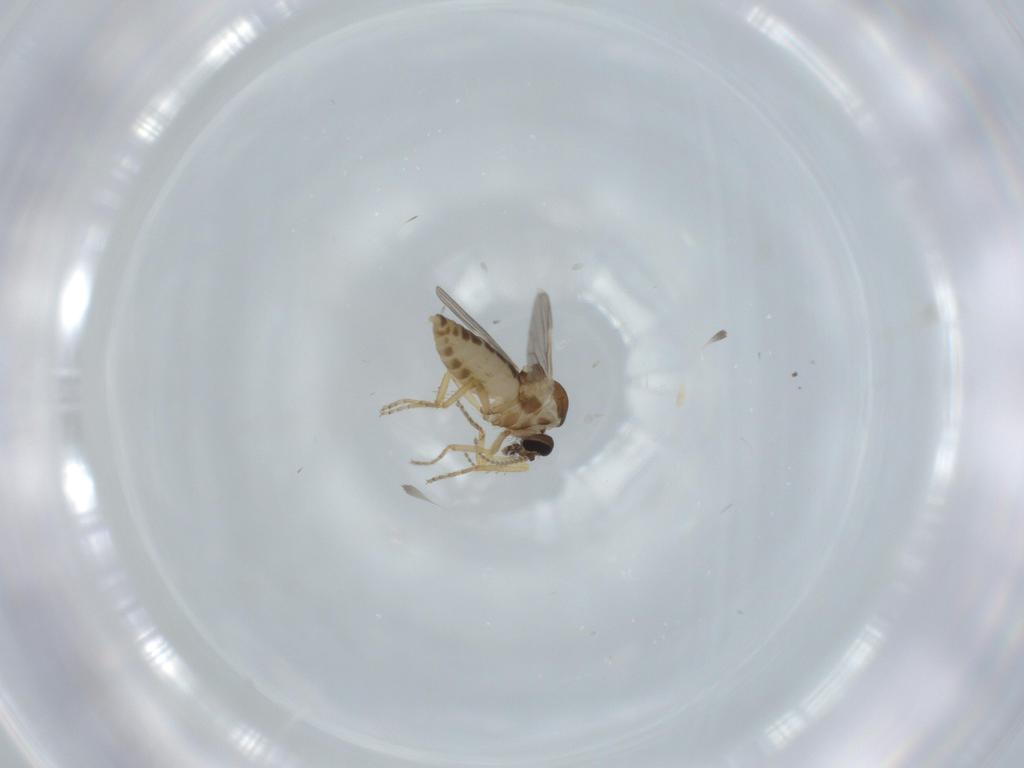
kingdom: Animalia
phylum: Arthropoda
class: Insecta
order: Diptera
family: Ceratopogonidae
